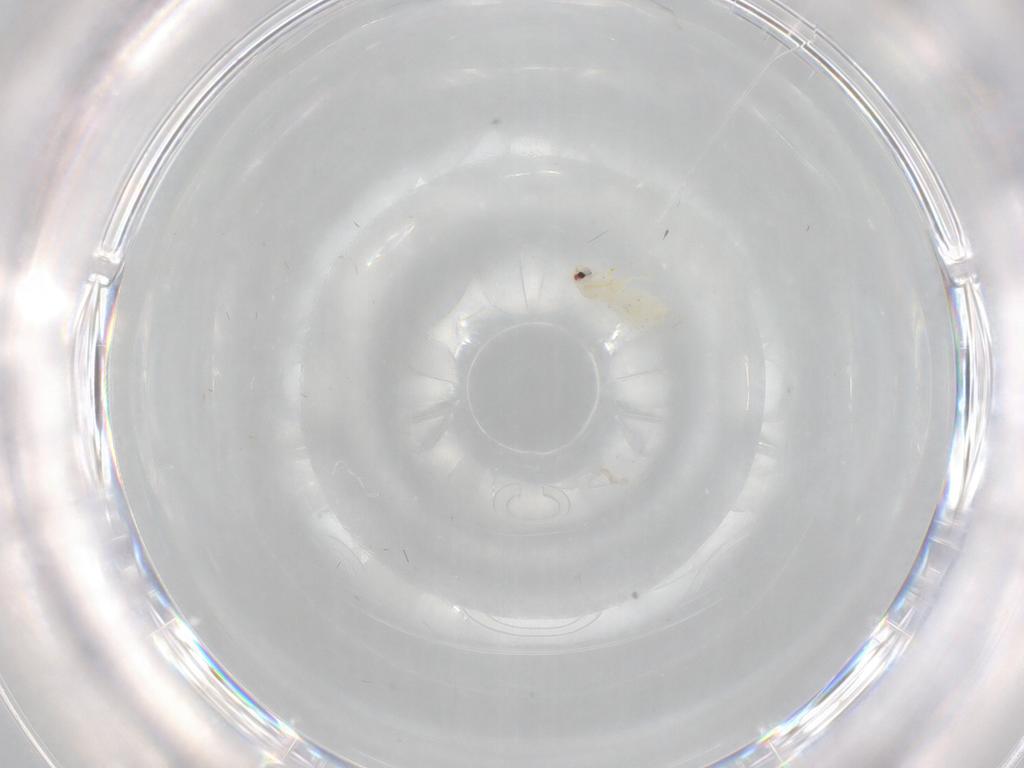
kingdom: Animalia
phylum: Arthropoda
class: Insecta
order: Hemiptera
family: Aleyrodidae
